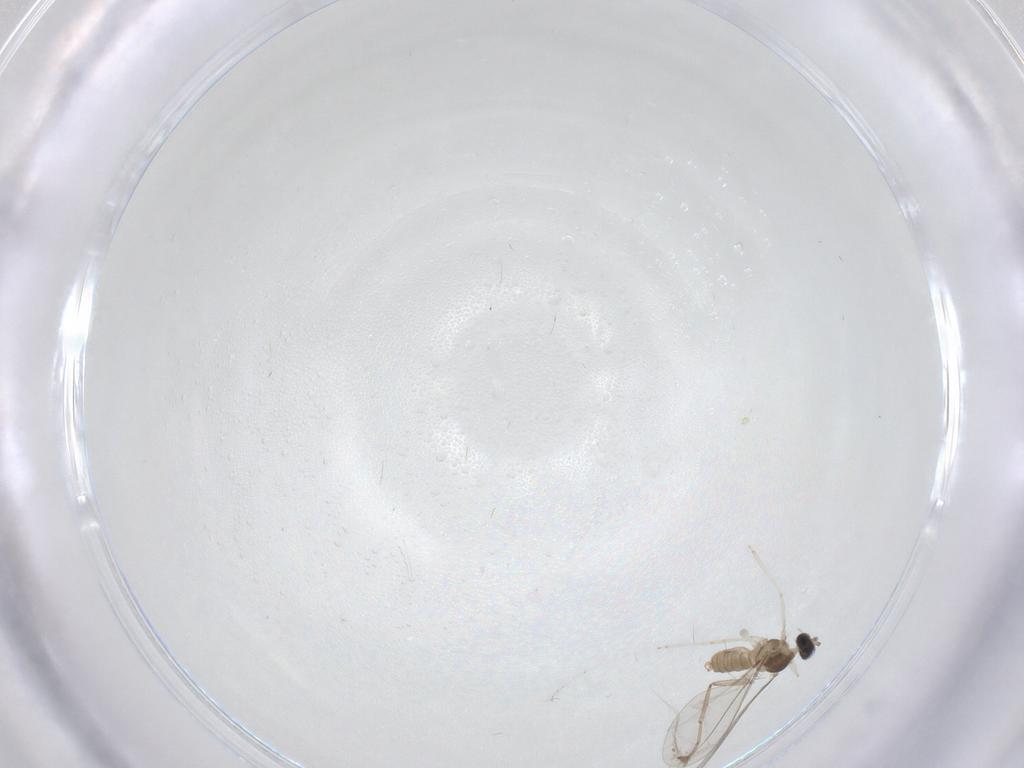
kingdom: Animalia
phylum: Arthropoda
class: Insecta
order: Diptera
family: Cecidomyiidae
